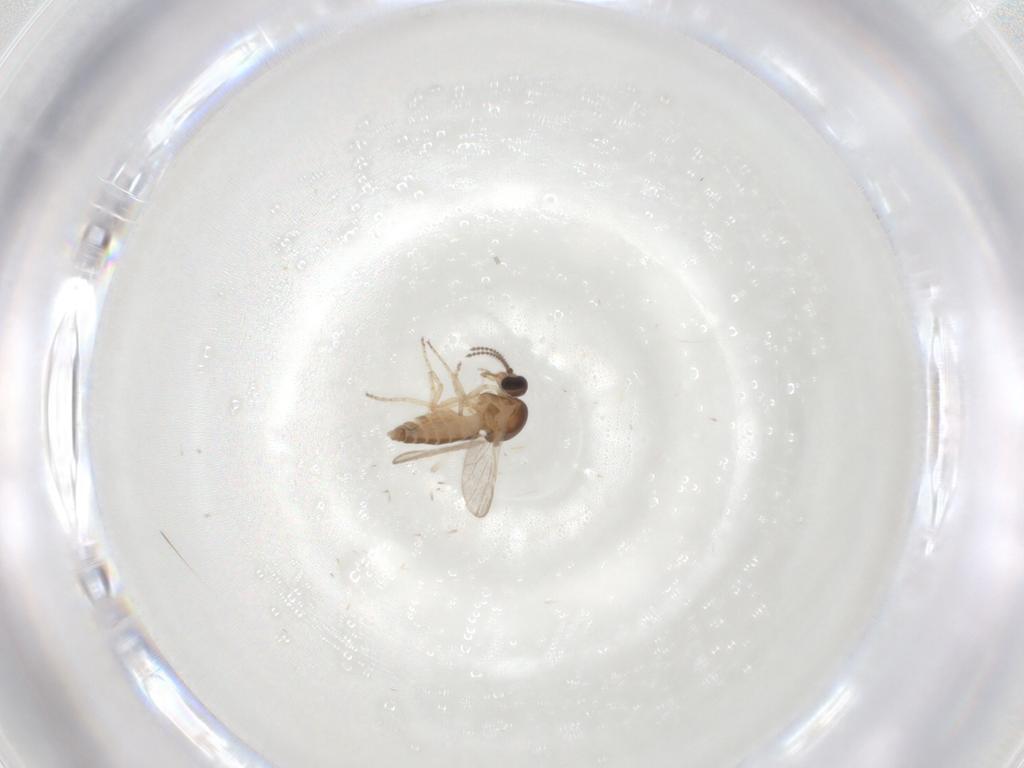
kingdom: Animalia
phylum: Arthropoda
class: Insecta
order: Diptera
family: Ceratopogonidae
